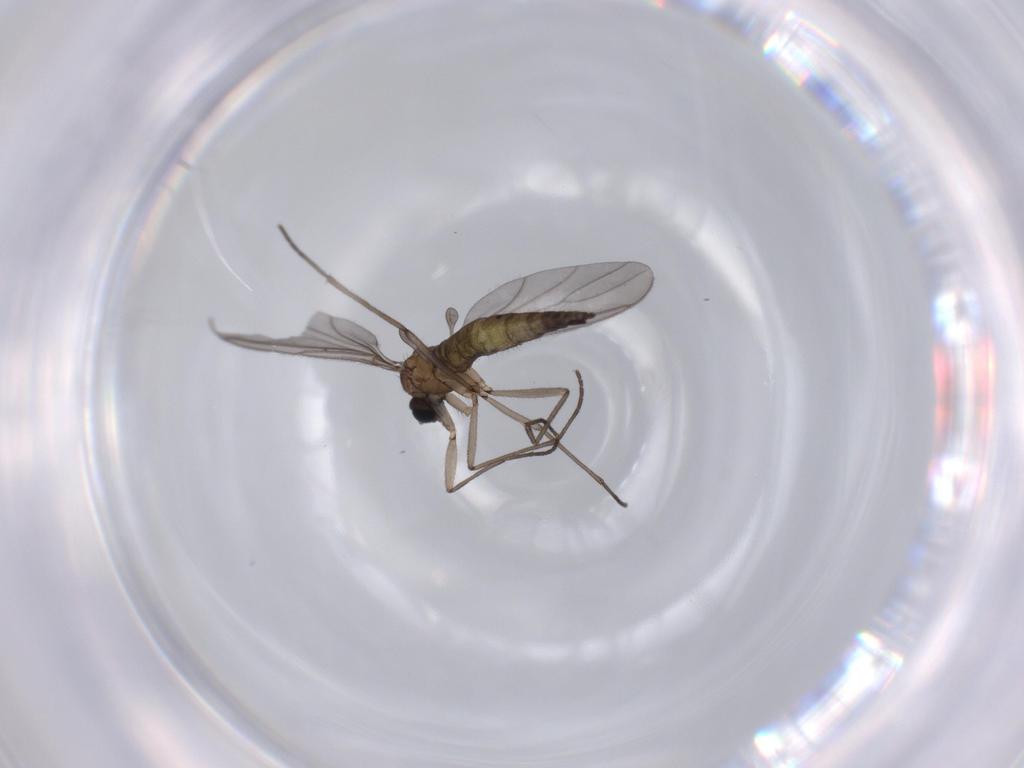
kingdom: Animalia
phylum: Arthropoda
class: Insecta
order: Diptera
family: Sciaridae
